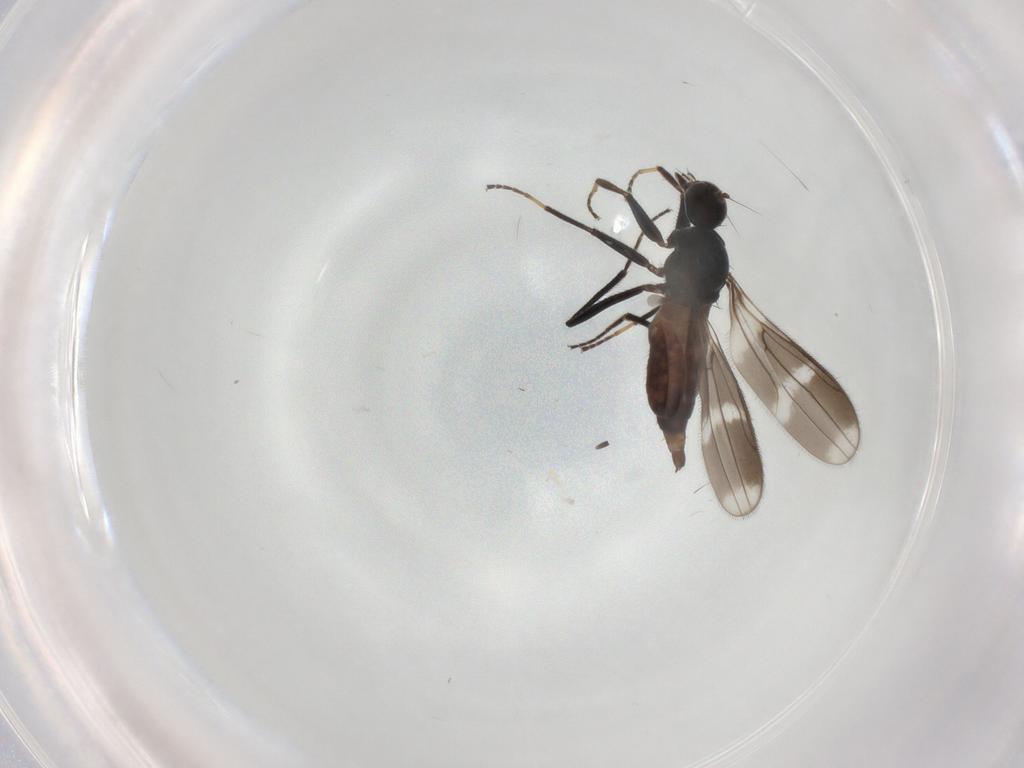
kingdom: Animalia
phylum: Arthropoda
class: Insecta
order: Diptera
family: Hybotidae
